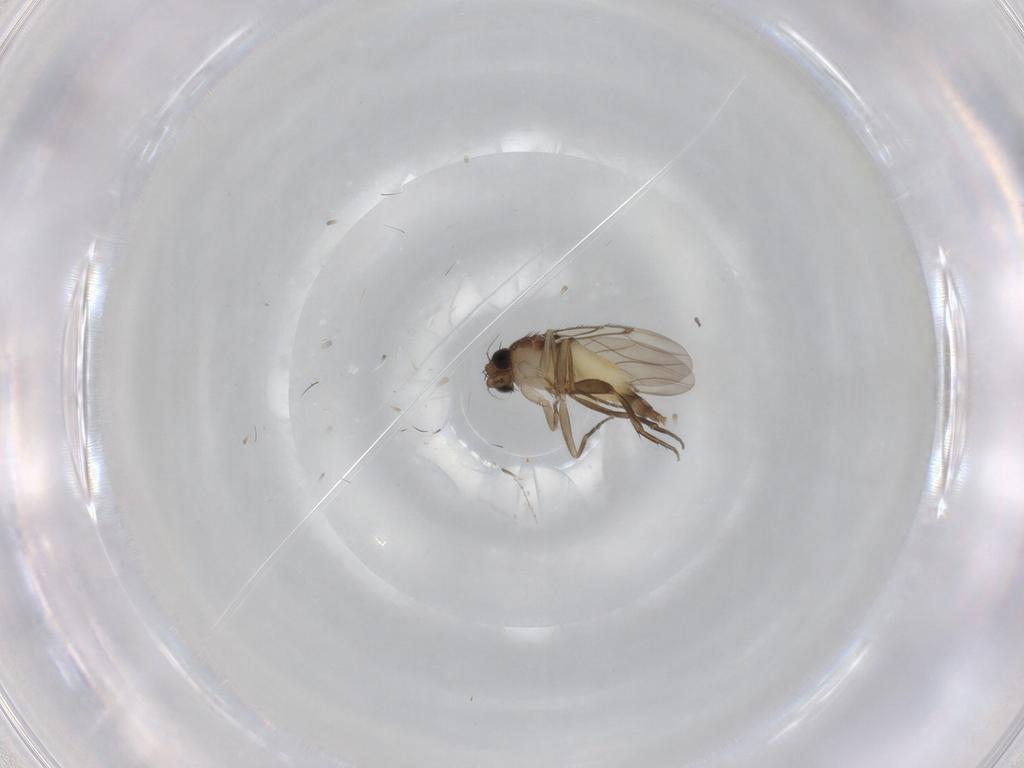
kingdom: Animalia
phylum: Arthropoda
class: Insecta
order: Diptera
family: Phoridae
